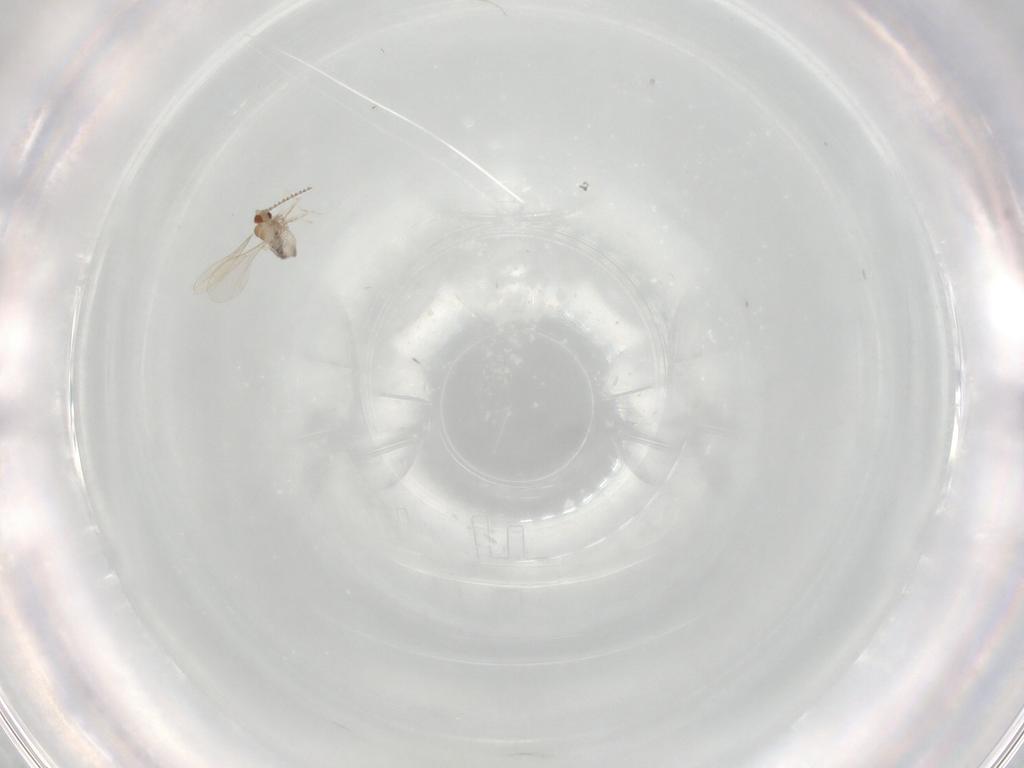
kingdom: Animalia
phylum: Arthropoda
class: Insecta
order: Diptera
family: Cecidomyiidae
